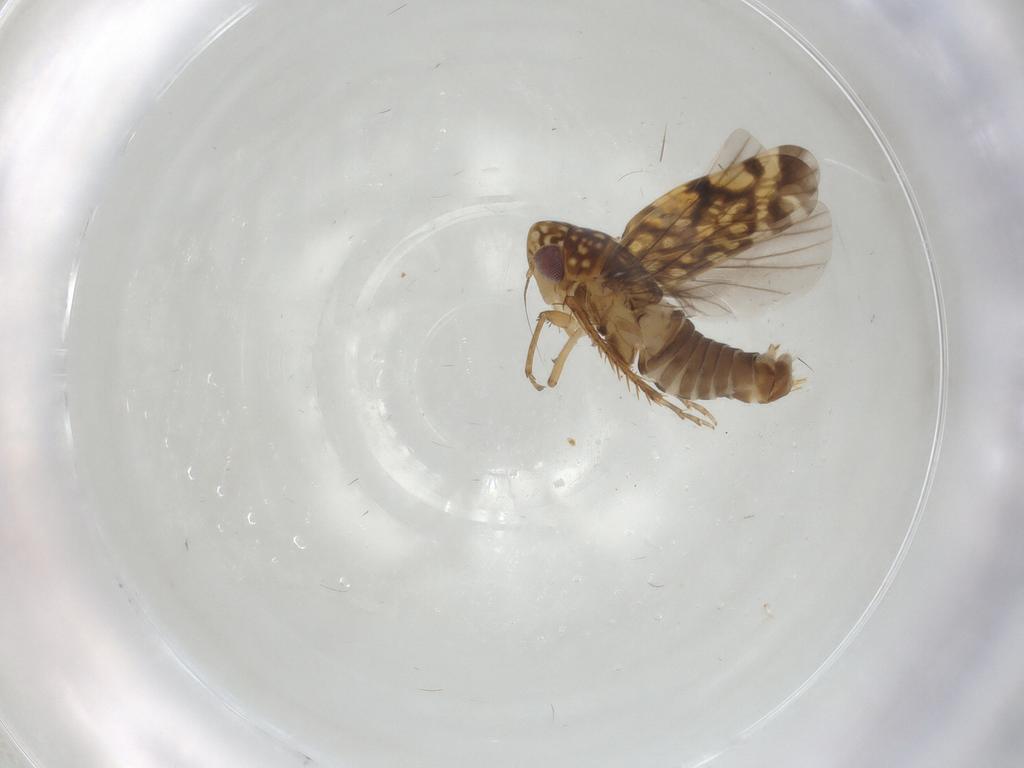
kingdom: Animalia
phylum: Arthropoda
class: Insecta
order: Hemiptera
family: Cicadellidae
